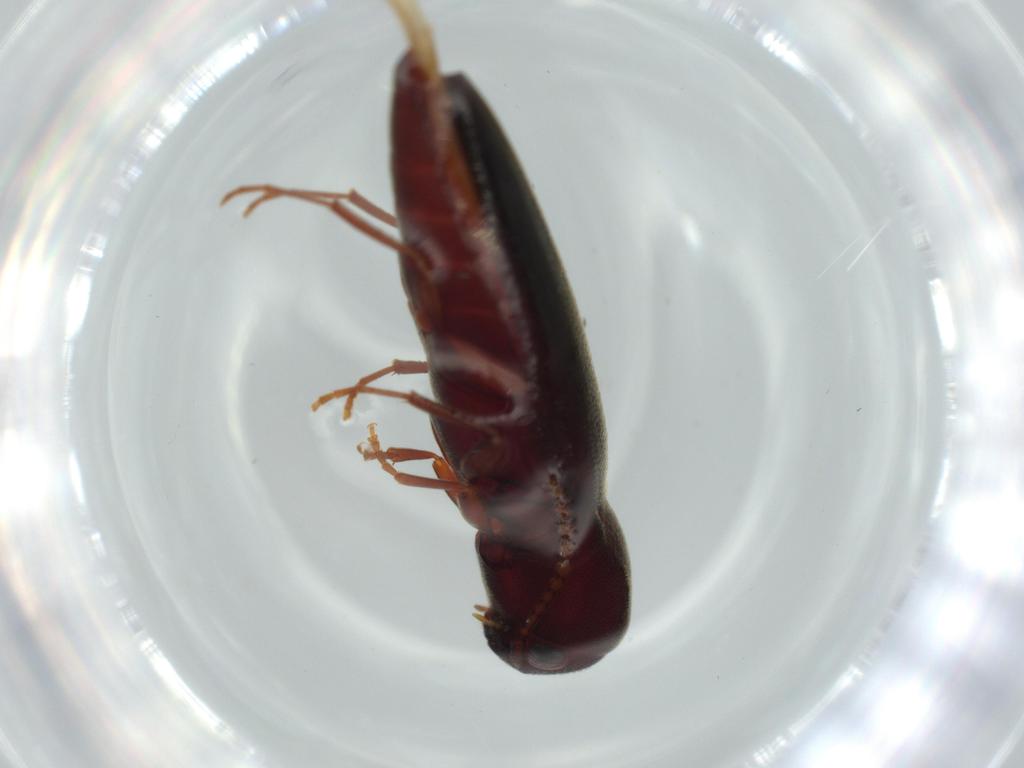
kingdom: Animalia
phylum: Arthropoda
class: Insecta
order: Coleoptera
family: Eucnemidae
